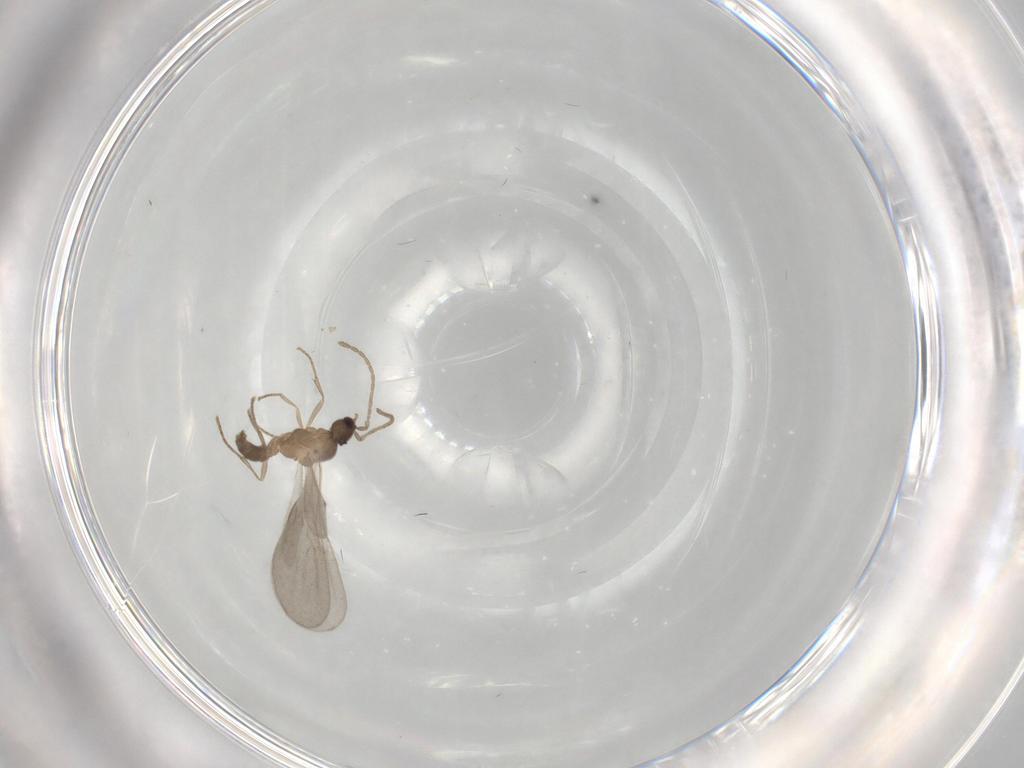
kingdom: Animalia
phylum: Arthropoda
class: Insecta
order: Hymenoptera
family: Formicidae
